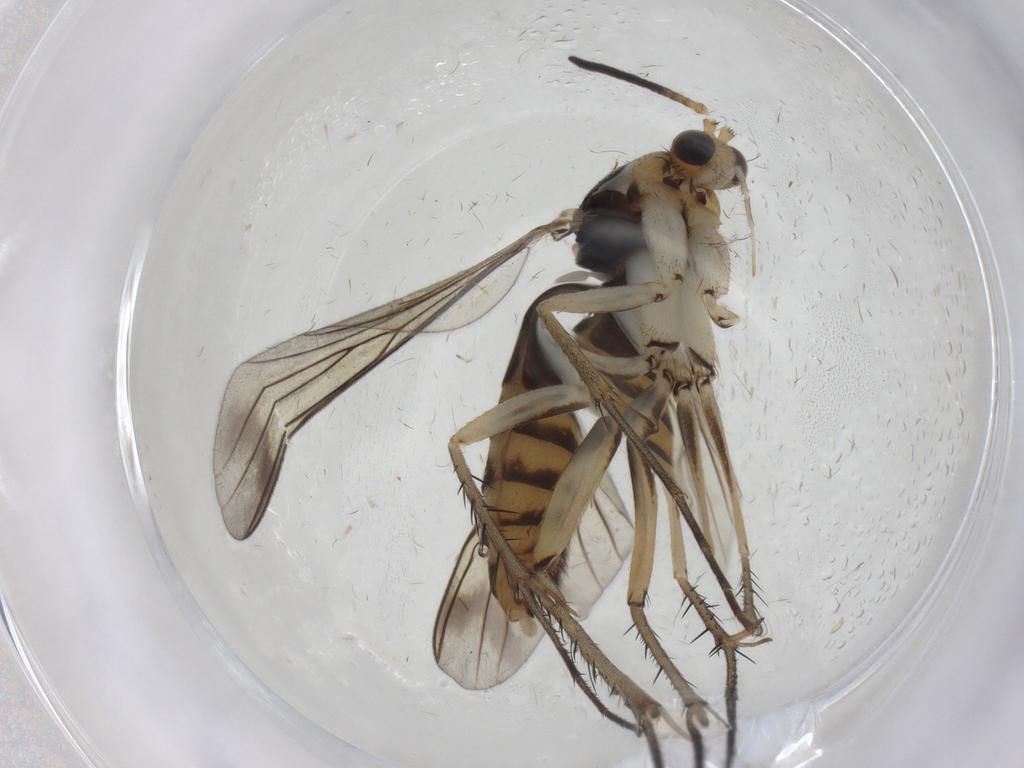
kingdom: Animalia
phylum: Arthropoda
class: Insecta
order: Diptera
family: Mycetophilidae
